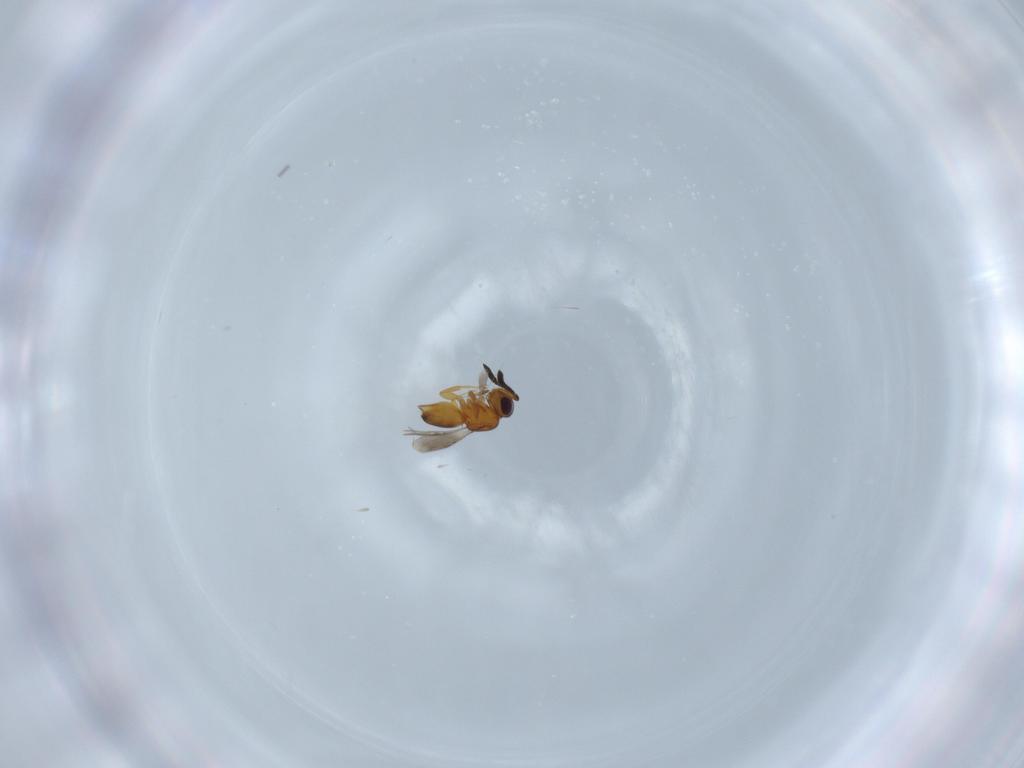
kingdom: Animalia
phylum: Arthropoda
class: Insecta
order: Hymenoptera
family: Ceraphronidae
